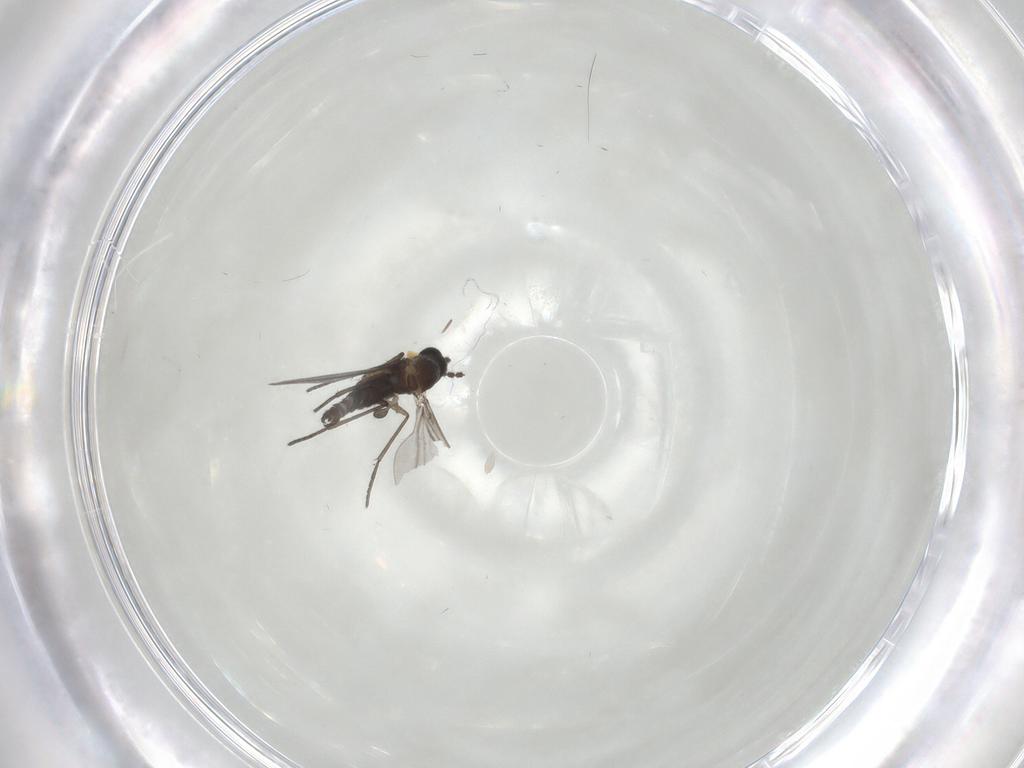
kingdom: Animalia
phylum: Arthropoda
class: Insecta
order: Diptera
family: Cecidomyiidae
